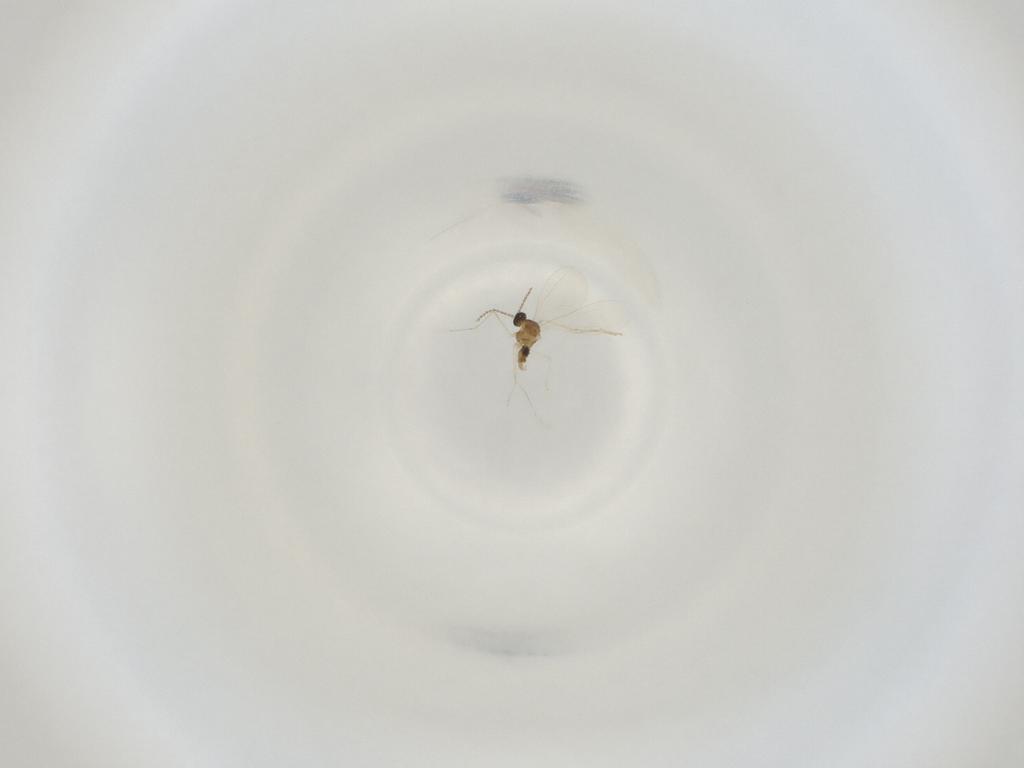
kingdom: Animalia
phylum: Arthropoda
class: Insecta
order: Diptera
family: Cecidomyiidae
